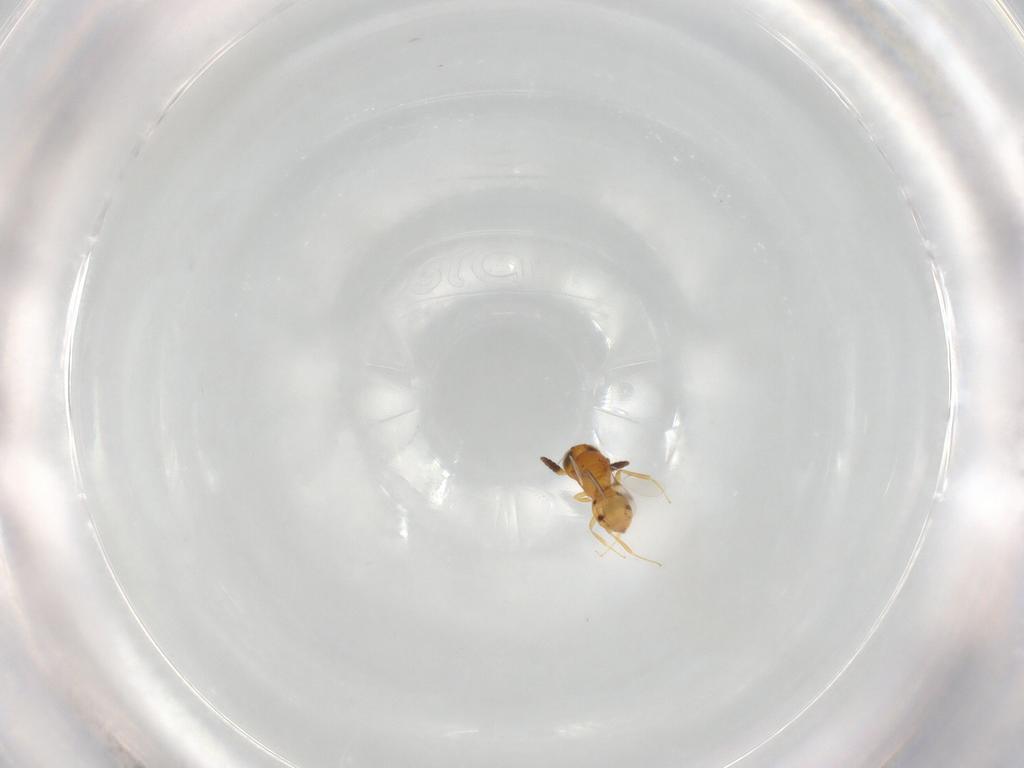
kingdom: Animalia
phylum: Arthropoda
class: Insecta
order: Hymenoptera
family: Scelionidae
